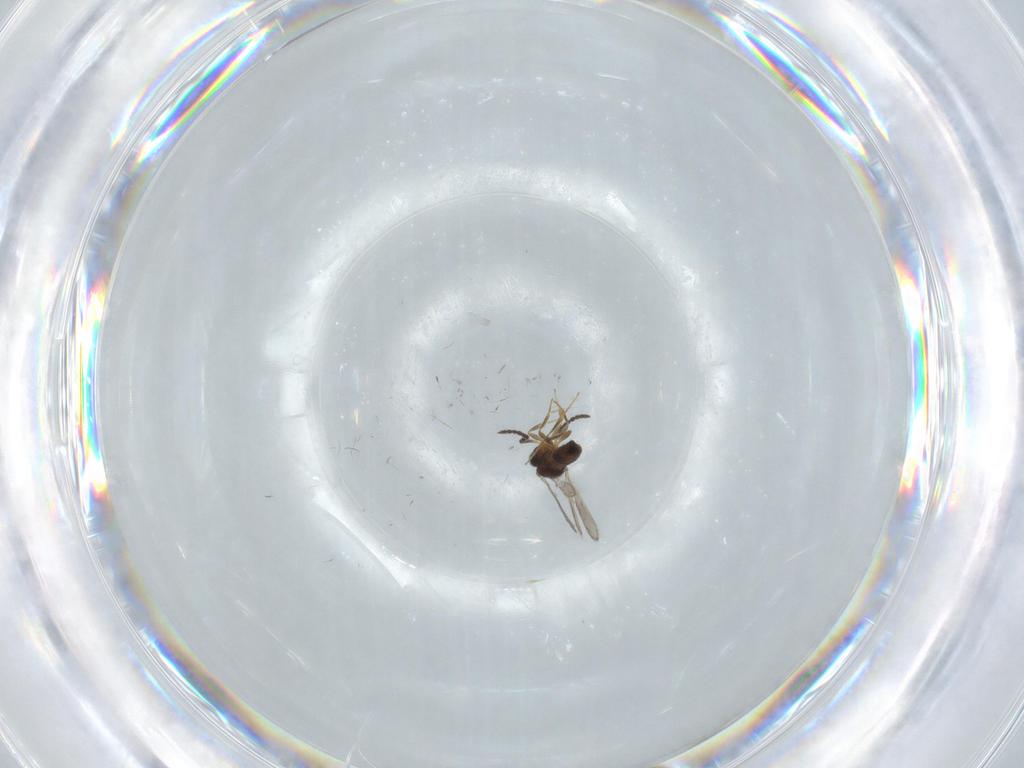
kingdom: Animalia
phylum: Arthropoda
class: Insecta
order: Hymenoptera
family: Scelionidae
